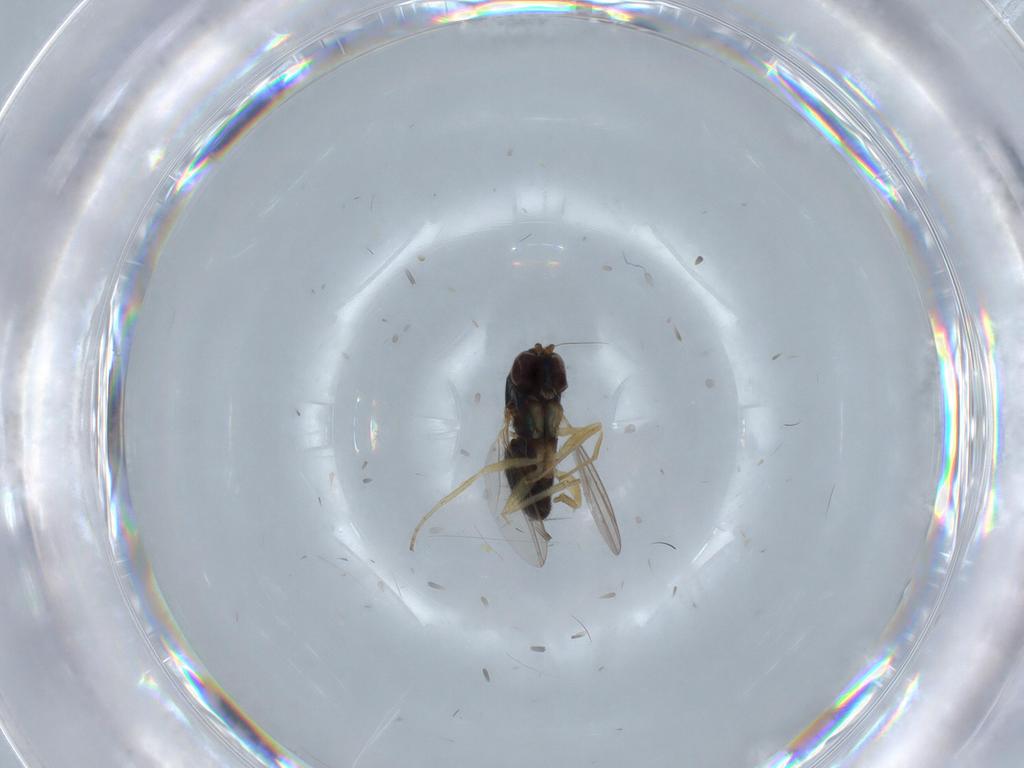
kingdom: Animalia
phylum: Arthropoda
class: Insecta
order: Diptera
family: Dolichopodidae
